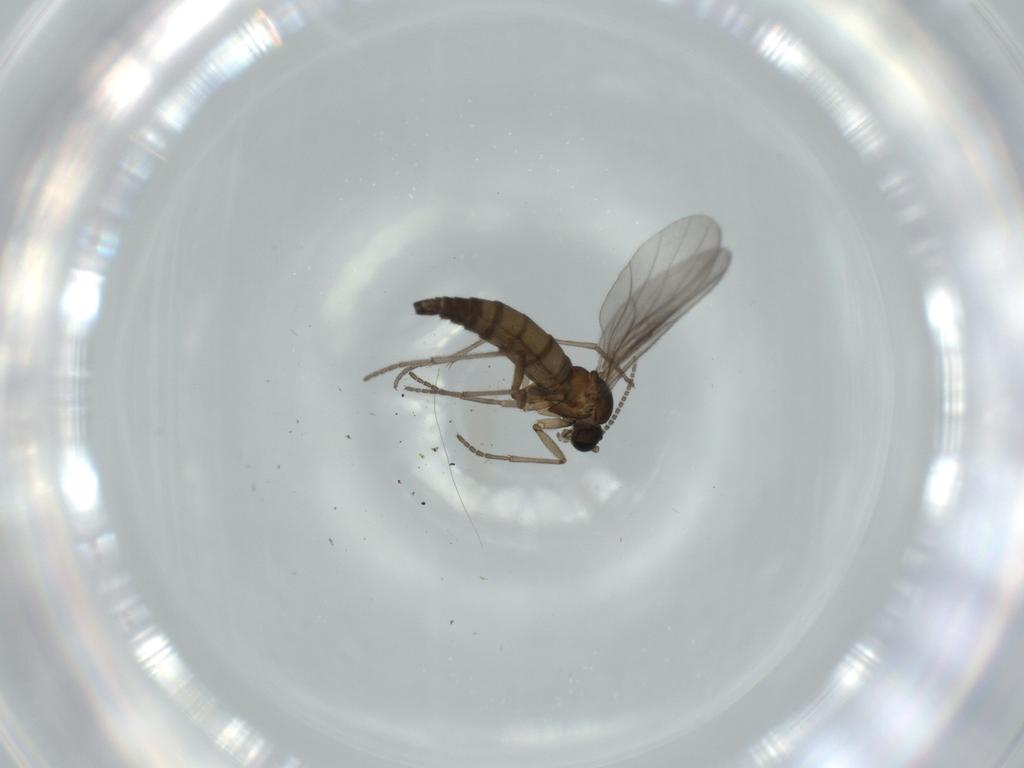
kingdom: Animalia
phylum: Arthropoda
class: Insecta
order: Diptera
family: Sciaridae
